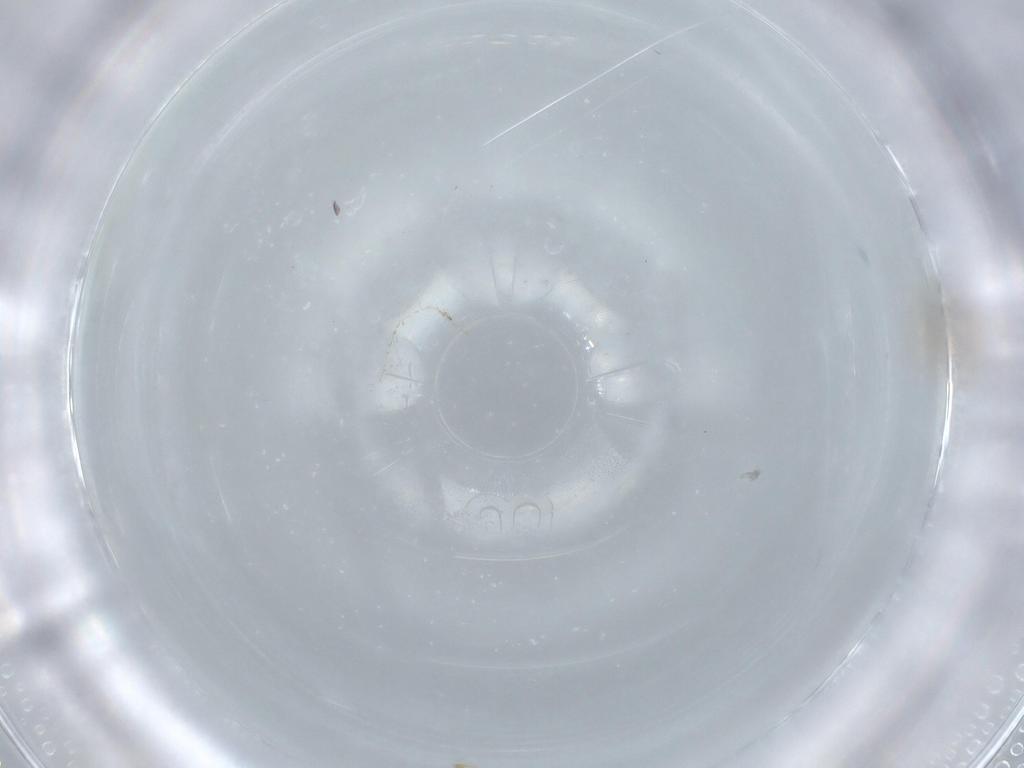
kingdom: Animalia
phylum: Arthropoda
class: Insecta
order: Diptera
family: Cecidomyiidae
